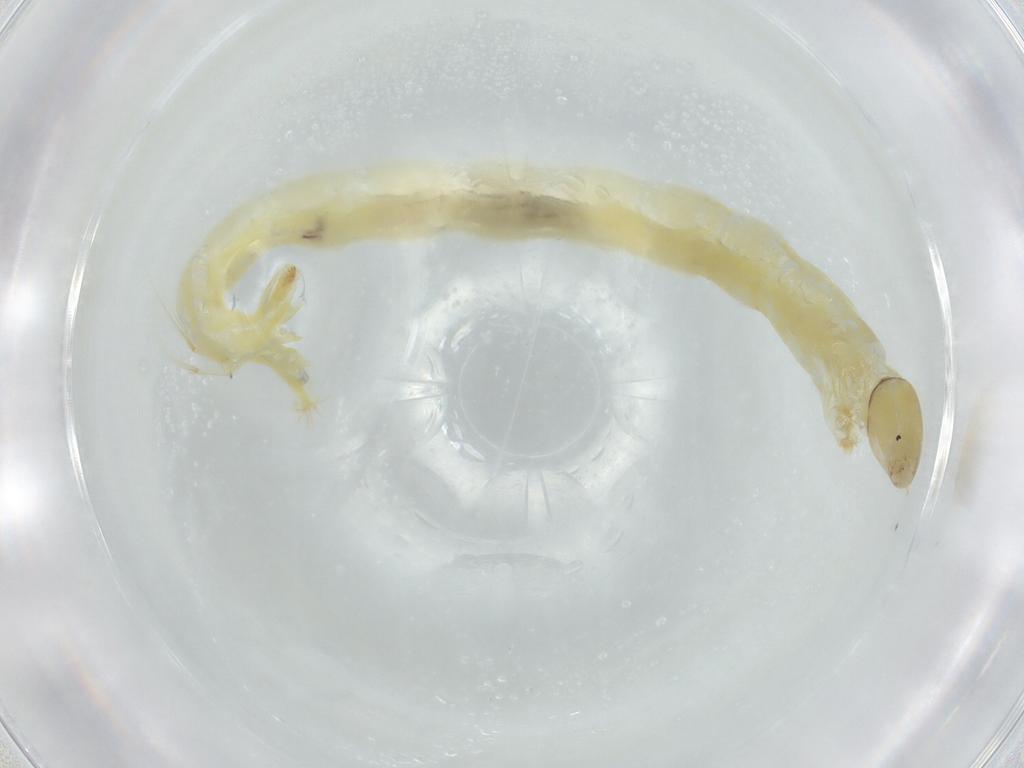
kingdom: Animalia
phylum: Arthropoda
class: Insecta
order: Diptera
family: Chironomidae
